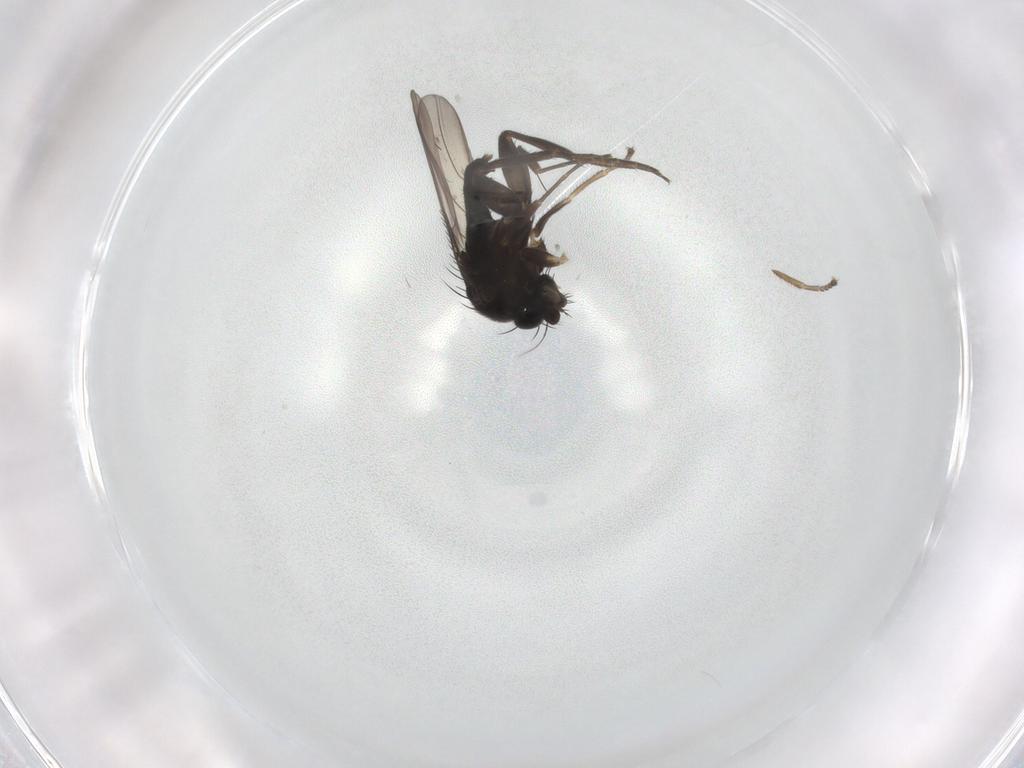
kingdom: Animalia
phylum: Arthropoda
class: Insecta
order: Diptera
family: Phoridae
